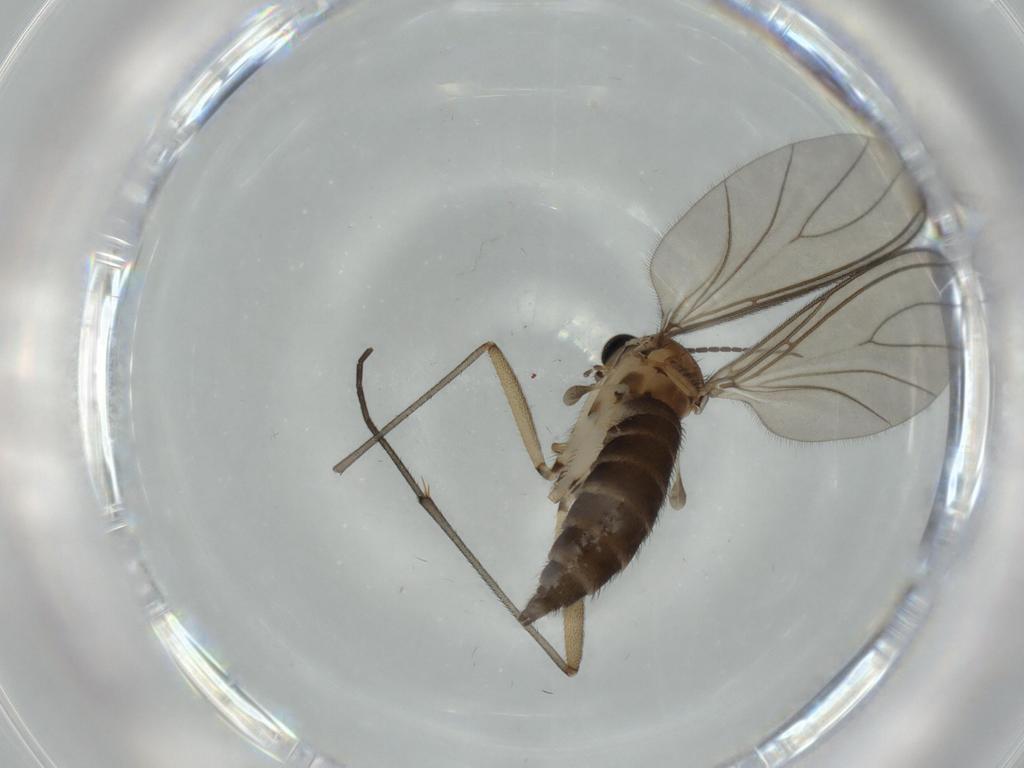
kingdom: Animalia
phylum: Arthropoda
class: Insecta
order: Diptera
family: Sciaridae
